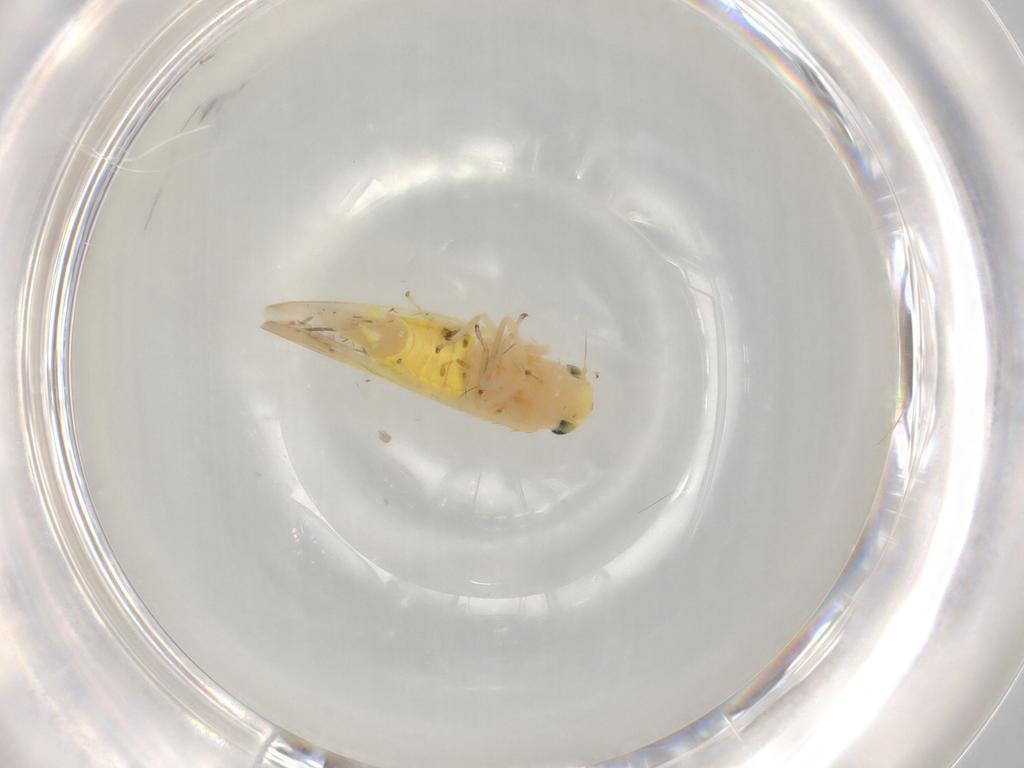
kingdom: Animalia
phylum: Arthropoda
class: Insecta
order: Hemiptera
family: Cicadellidae
